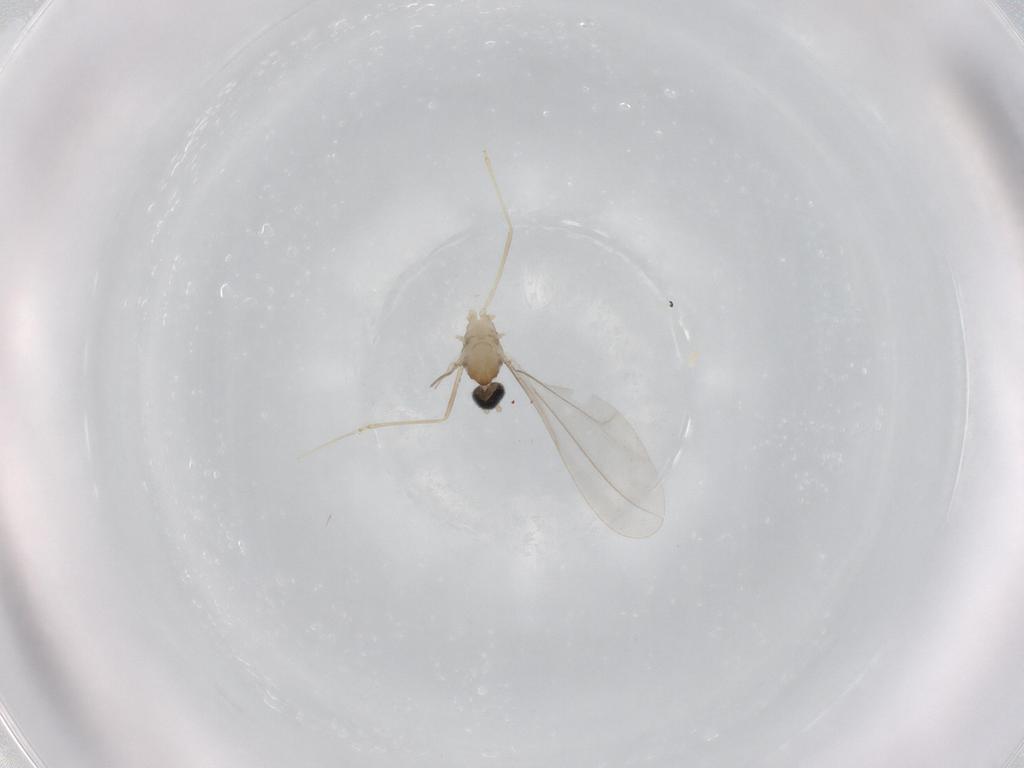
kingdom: Animalia
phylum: Arthropoda
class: Insecta
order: Diptera
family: Cecidomyiidae
